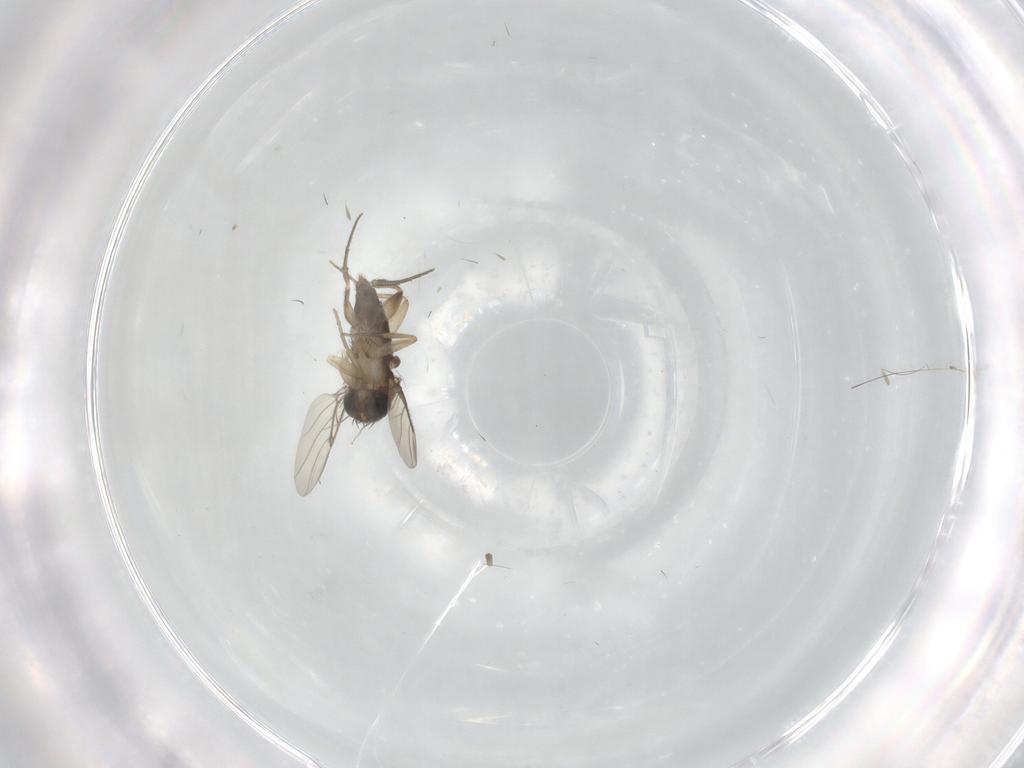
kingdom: Animalia
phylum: Arthropoda
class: Insecta
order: Diptera
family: Phoridae
